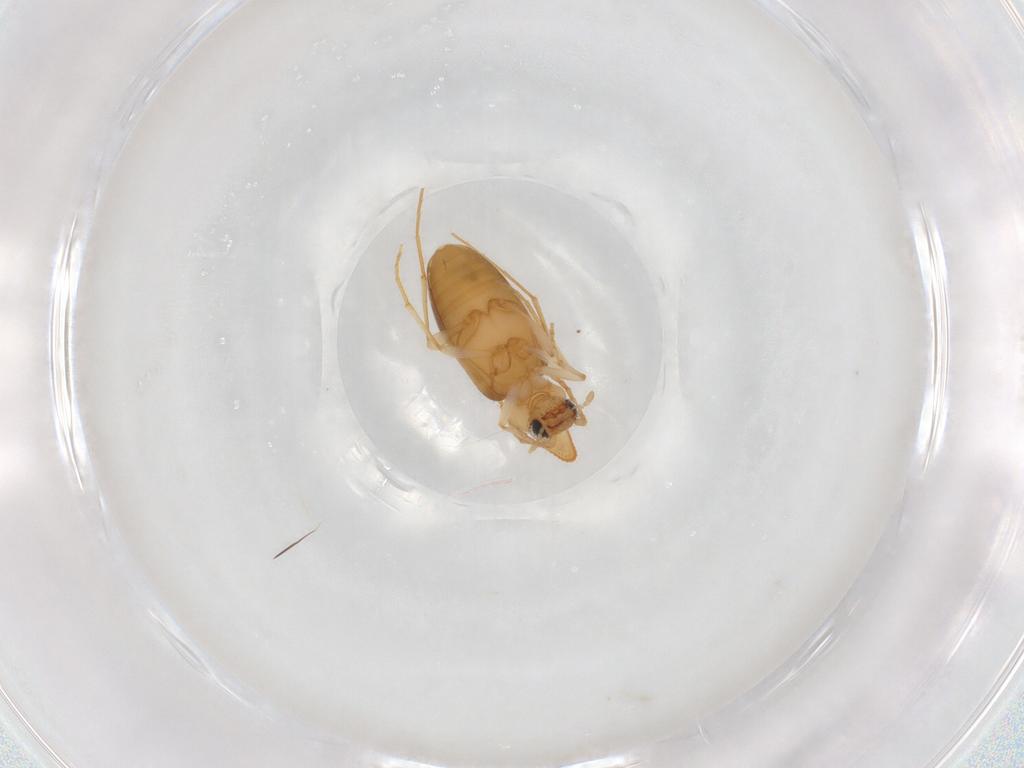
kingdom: Animalia
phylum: Arthropoda
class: Insecta
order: Coleoptera
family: Anthicidae
